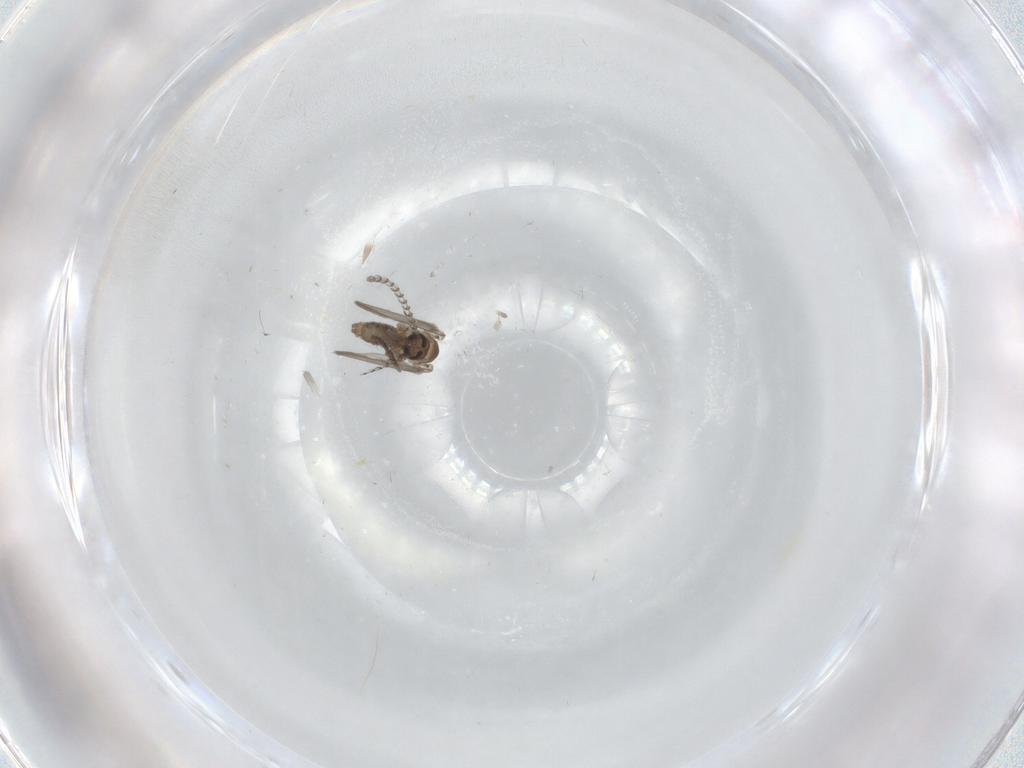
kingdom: Animalia
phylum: Arthropoda
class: Insecta
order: Diptera
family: Psychodidae
